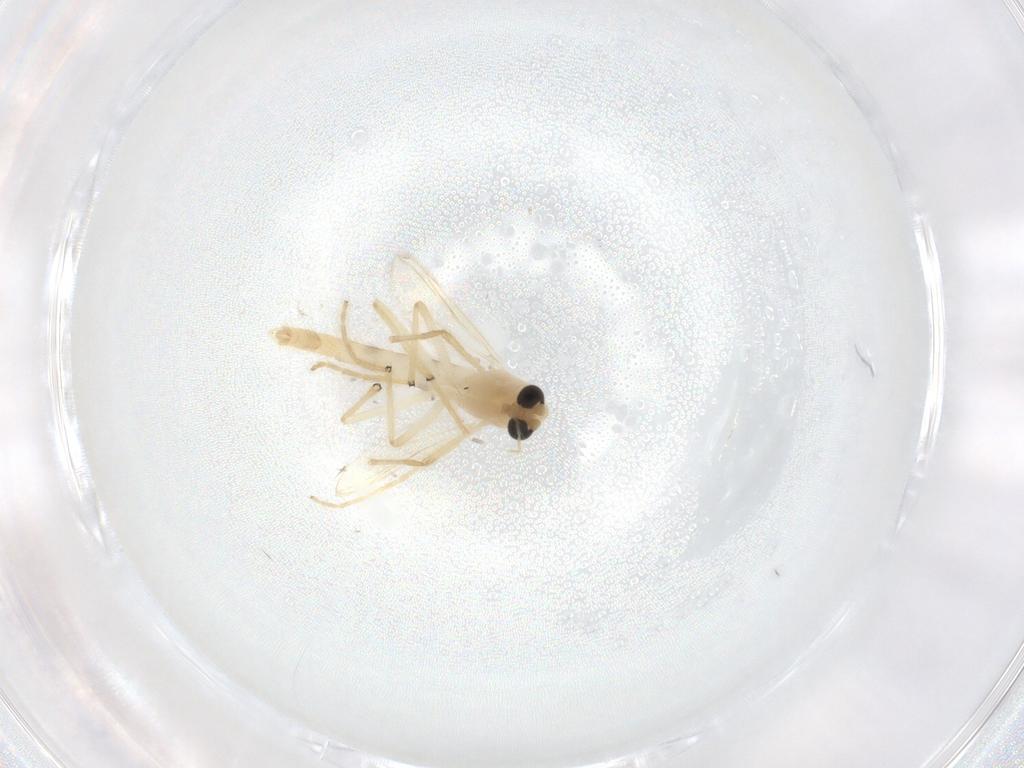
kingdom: Animalia
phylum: Arthropoda
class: Insecta
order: Diptera
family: Chironomidae
